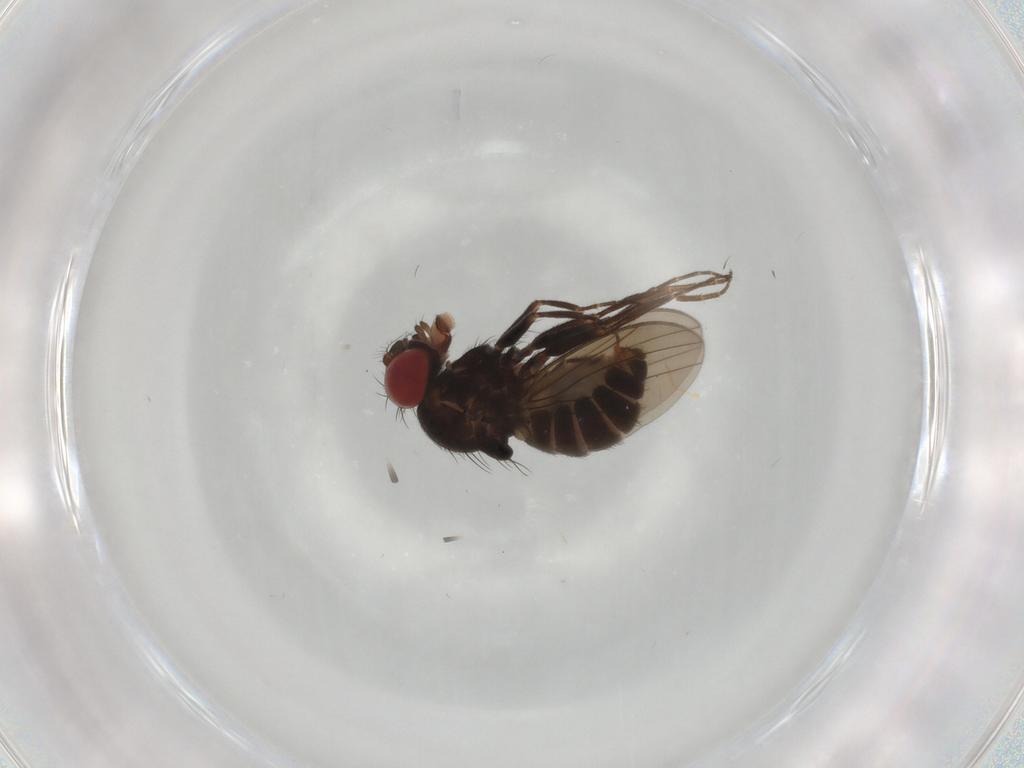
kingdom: Animalia
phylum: Arthropoda
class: Insecta
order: Diptera
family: Drosophilidae
